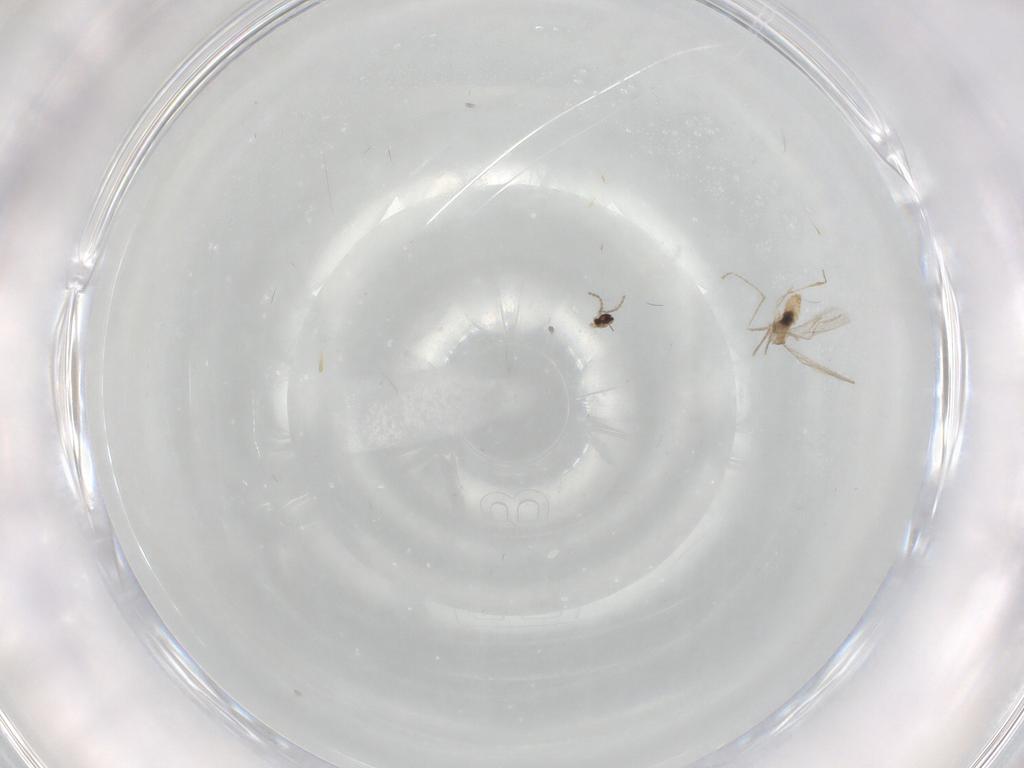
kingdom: Animalia
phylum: Arthropoda
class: Insecta
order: Diptera
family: Cecidomyiidae
